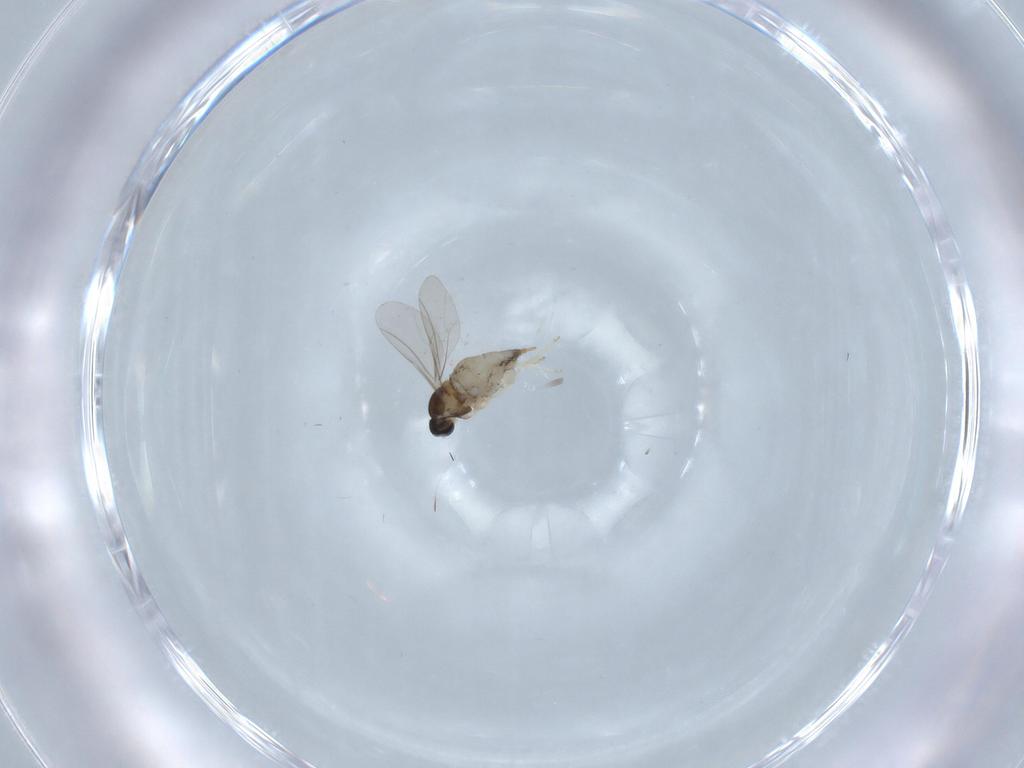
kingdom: Animalia
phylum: Arthropoda
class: Insecta
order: Diptera
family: Cecidomyiidae
